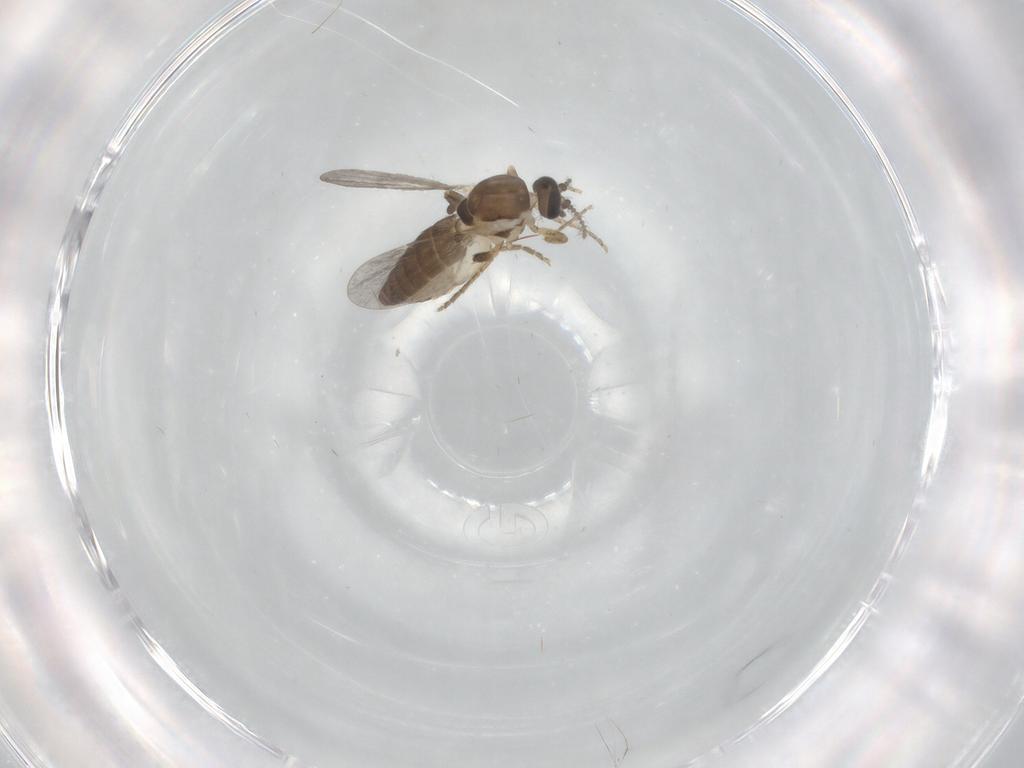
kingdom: Animalia
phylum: Arthropoda
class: Insecta
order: Diptera
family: Ceratopogonidae
